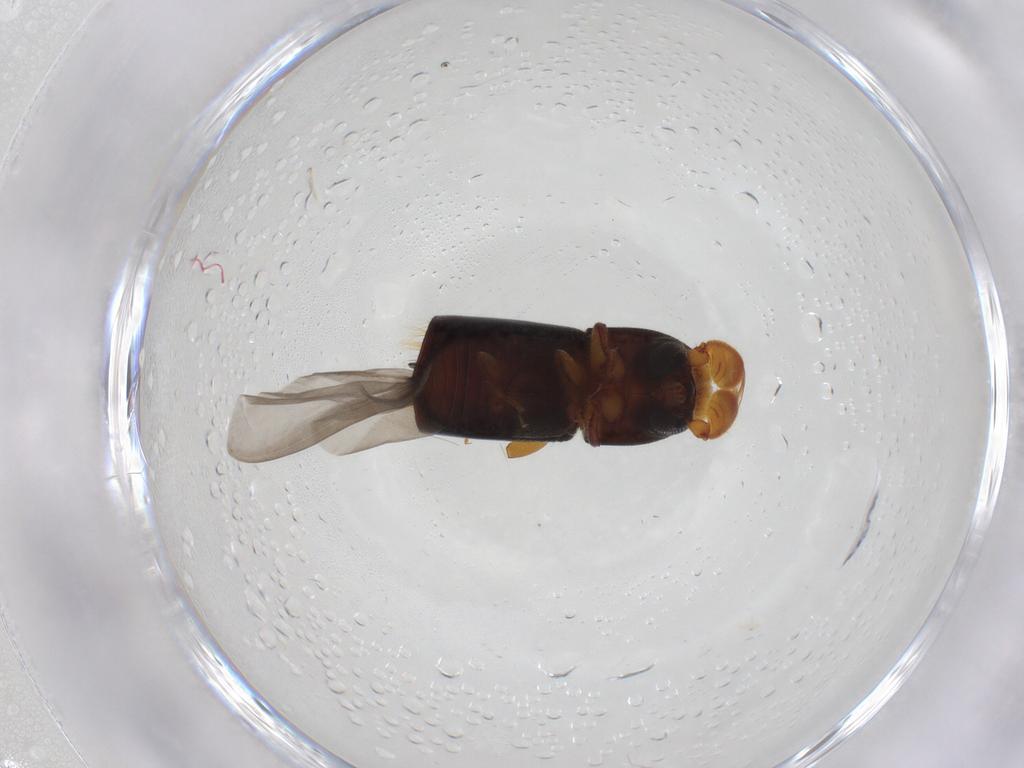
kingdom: Animalia
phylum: Arthropoda
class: Insecta
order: Coleoptera
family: Curculionidae
